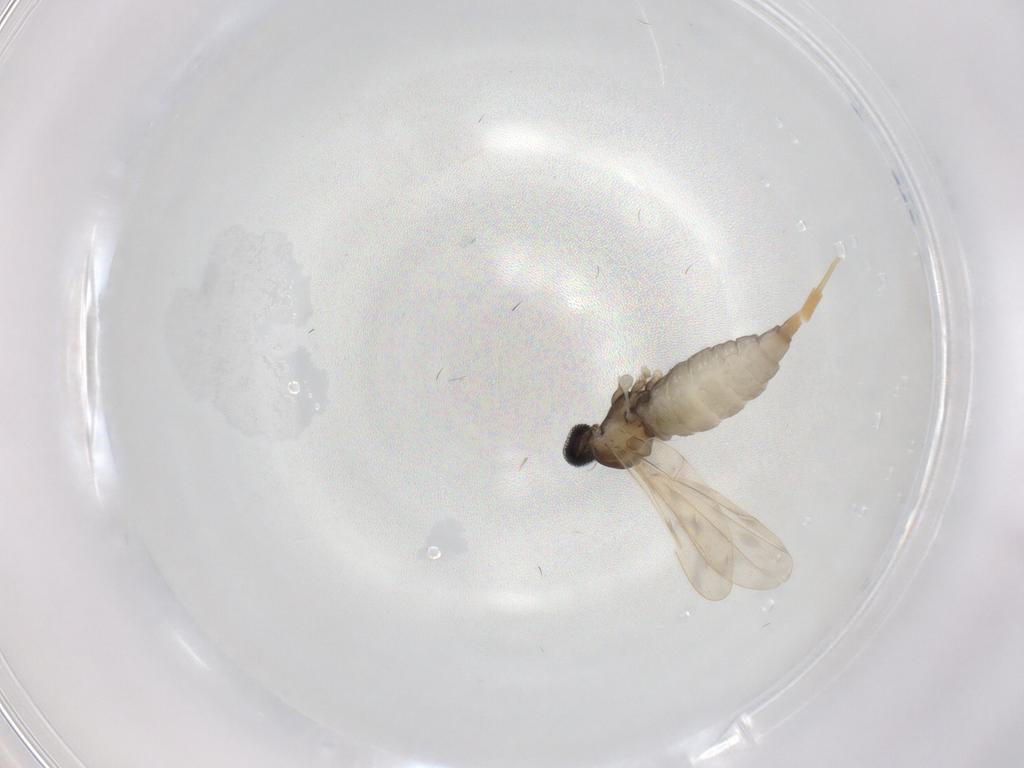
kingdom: Animalia
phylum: Arthropoda
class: Insecta
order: Diptera
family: Cecidomyiidae
